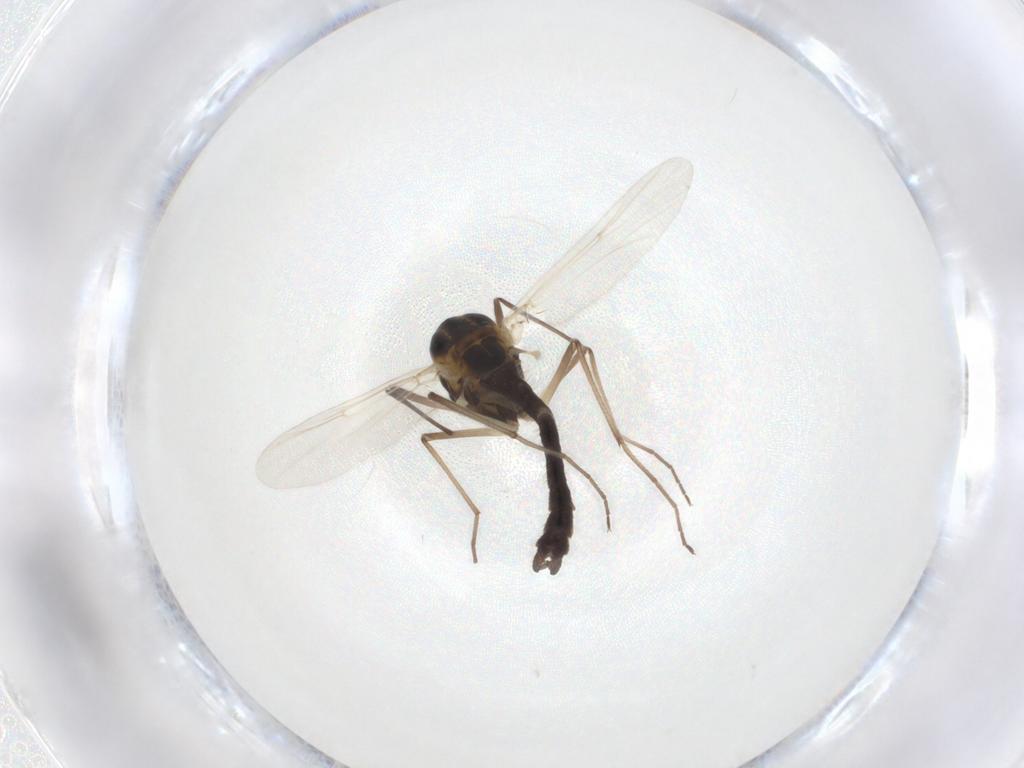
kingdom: Animalia
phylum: Arthropoda
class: Insecta
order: Diptera
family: Chironomidae
